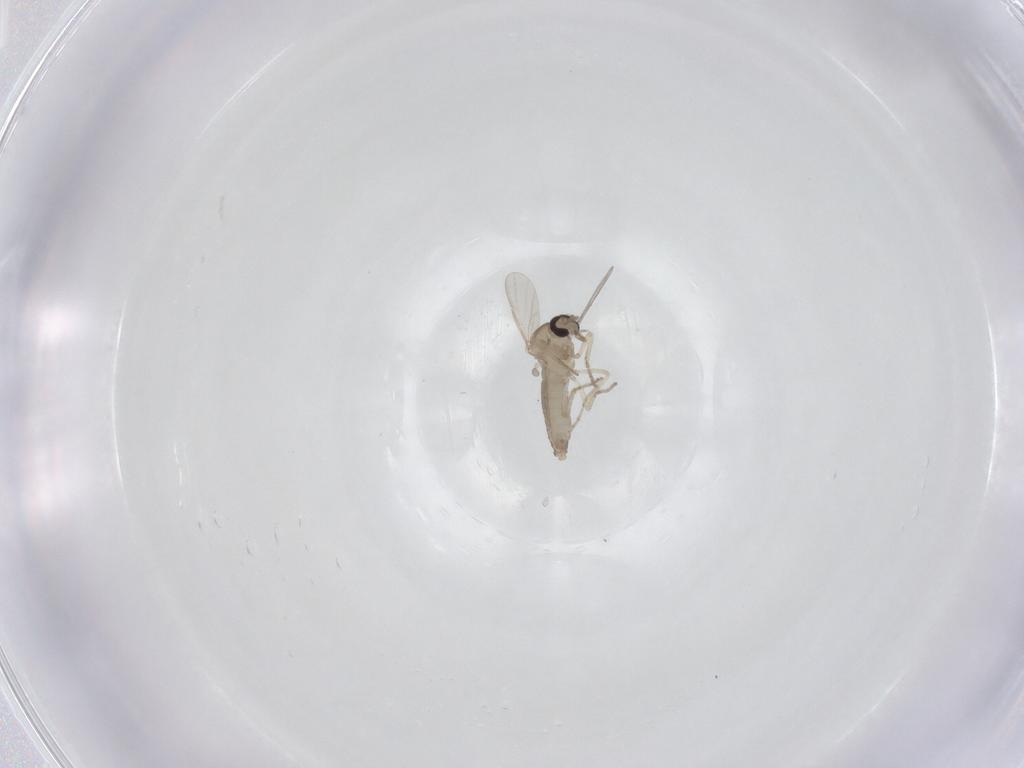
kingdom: Animalia
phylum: Arthropoda
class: Insecta
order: Diptera
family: Ceratopogonidae
